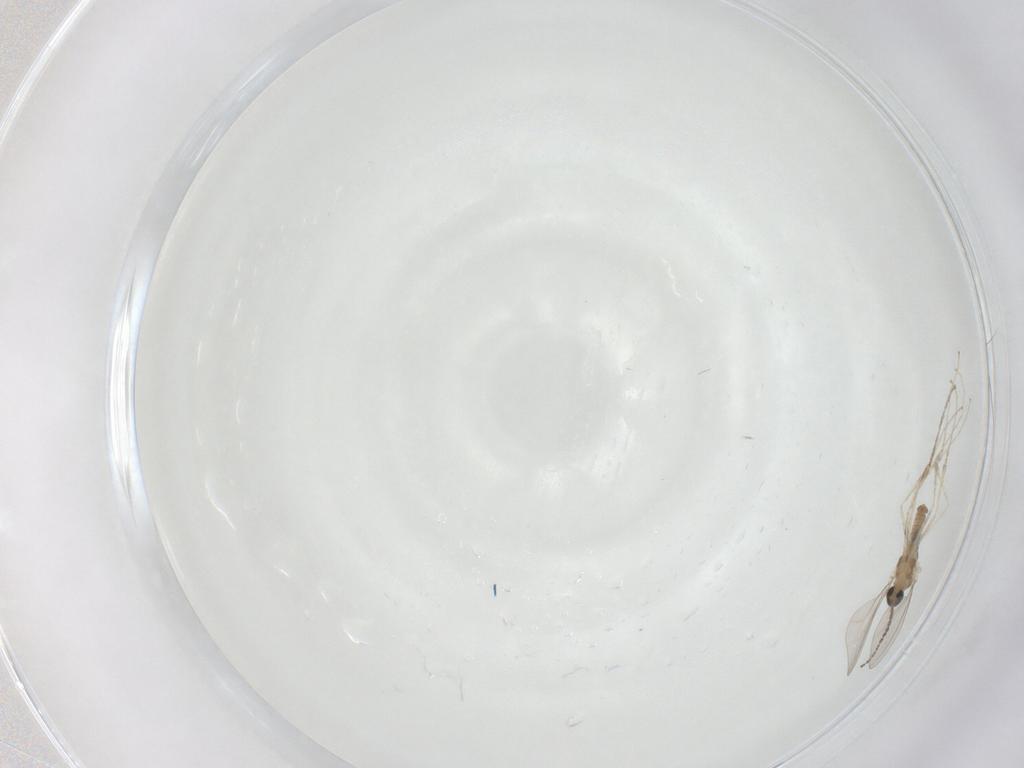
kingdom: Animalia
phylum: Arthropoda
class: Insecta
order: Diptera
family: Cecidomyiidae
